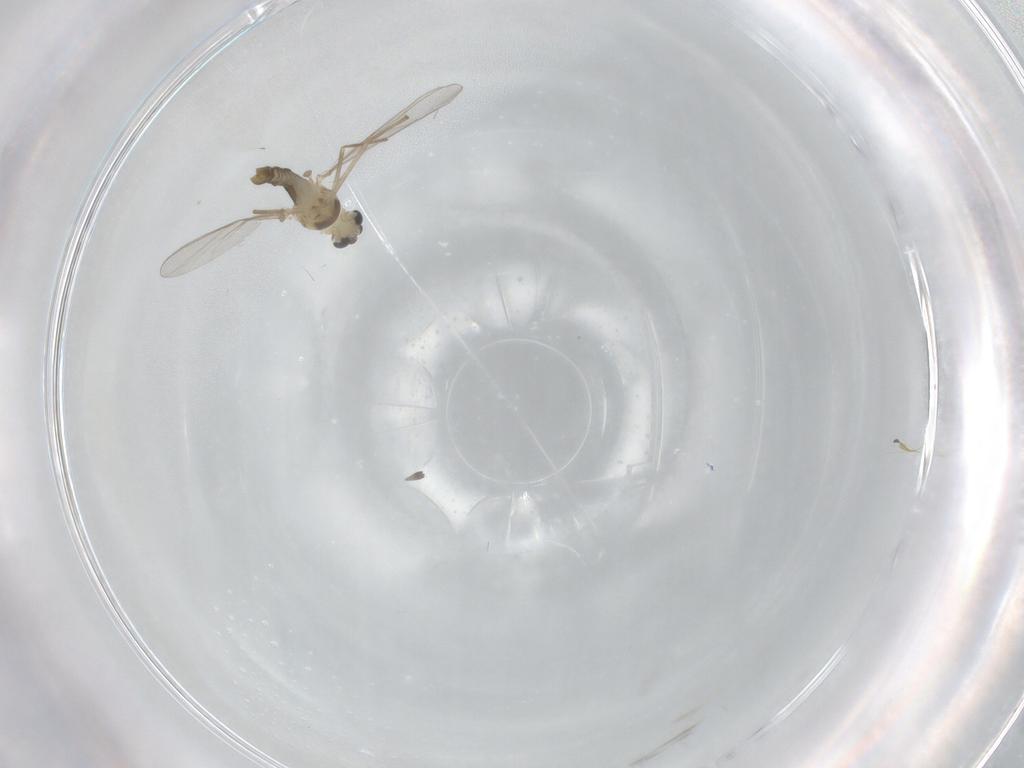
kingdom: Animalia
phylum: Arthropoda
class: Insecta
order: Diptera
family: Chironomidae
